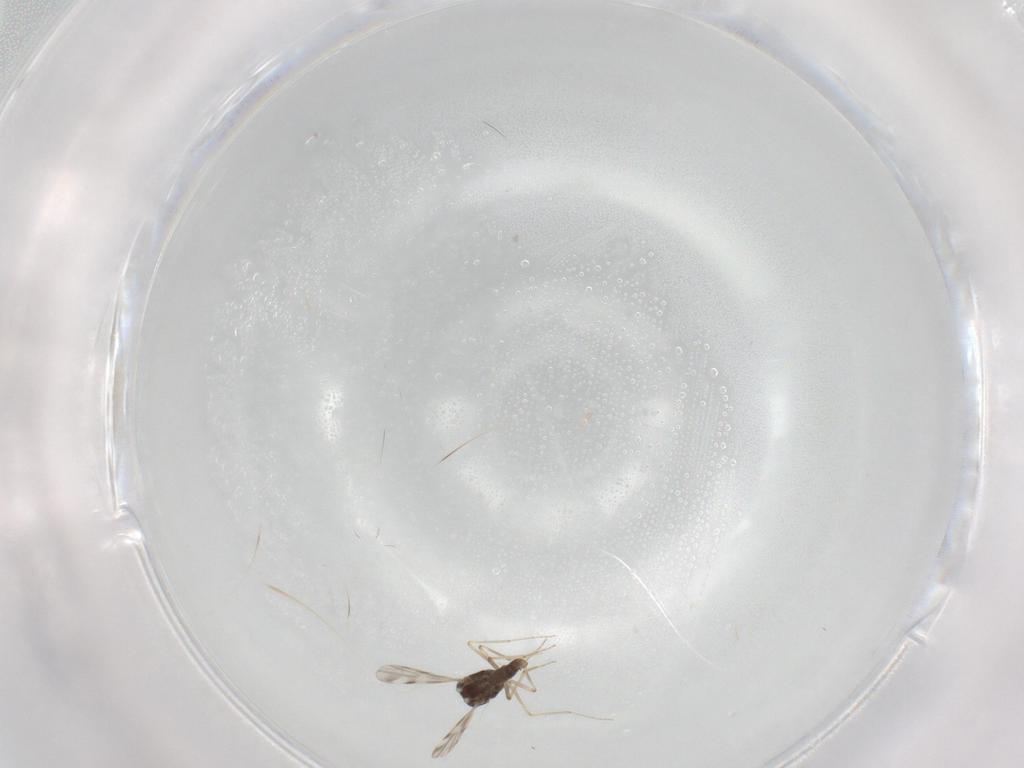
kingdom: Animalia
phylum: Arthropoda
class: Insecta
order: Diptera
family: Ceratopogonidae
